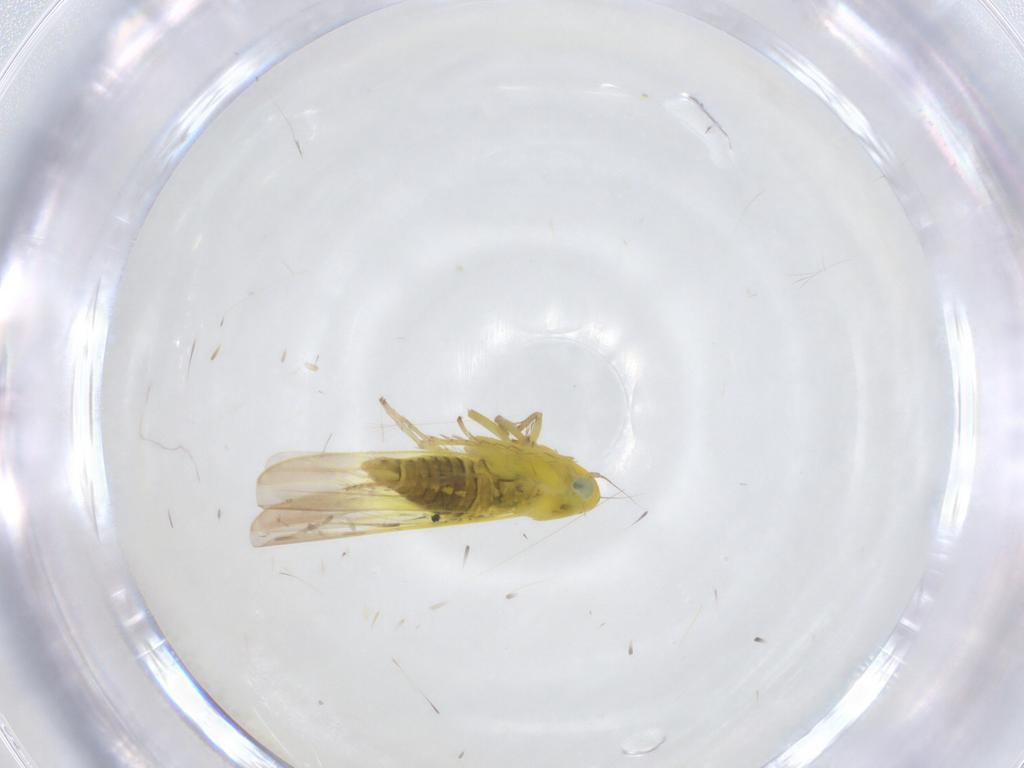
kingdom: Animalia
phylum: Arthropoda
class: Insecta
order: Hemiptera
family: Cicadellidae
